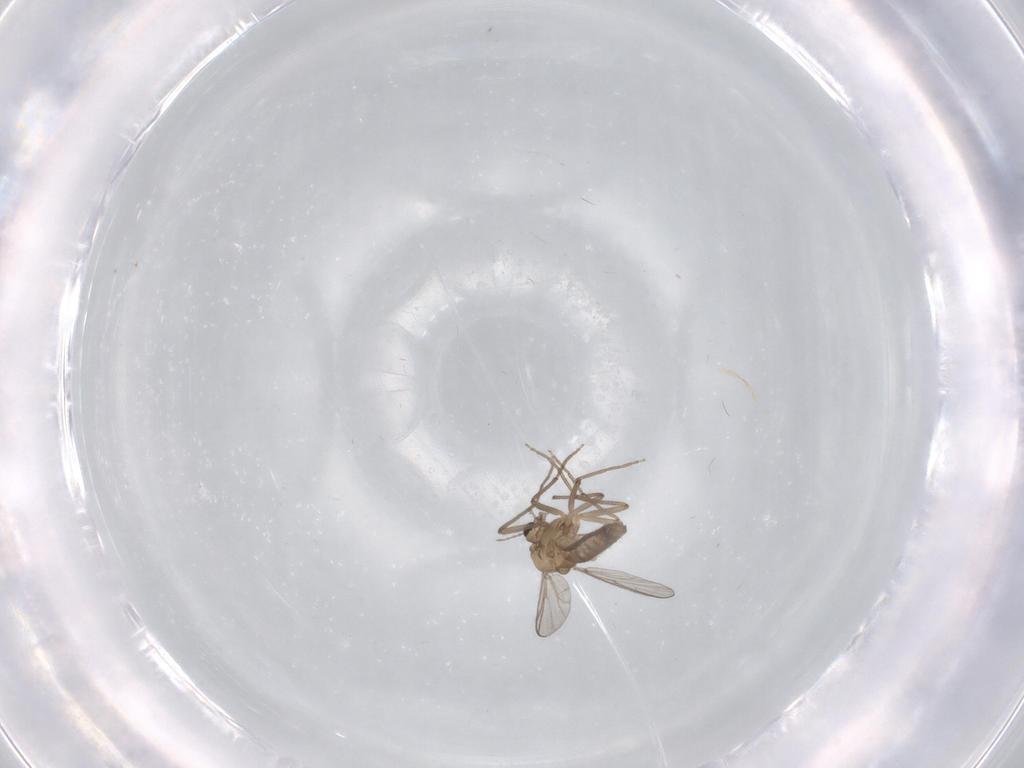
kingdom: Animalia
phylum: Arthropoda
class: Insecta
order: Diptera
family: Chironomidae
